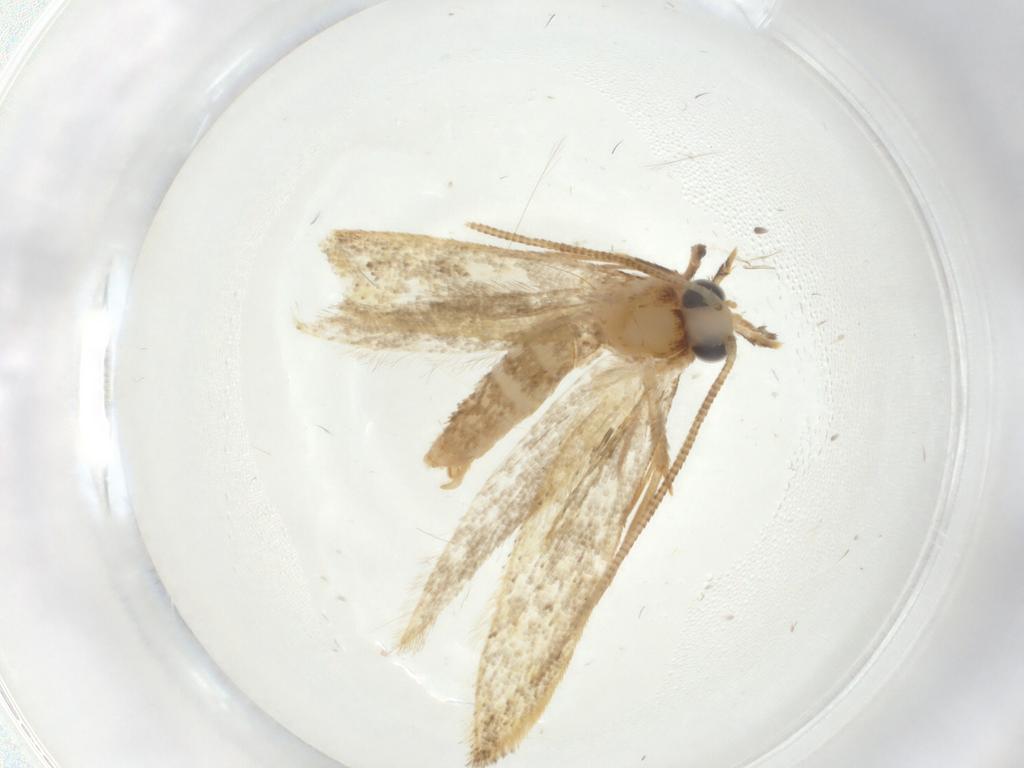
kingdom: Animalia
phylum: Arthropoda
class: Insecta
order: Lepidoptera
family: Tineidae
